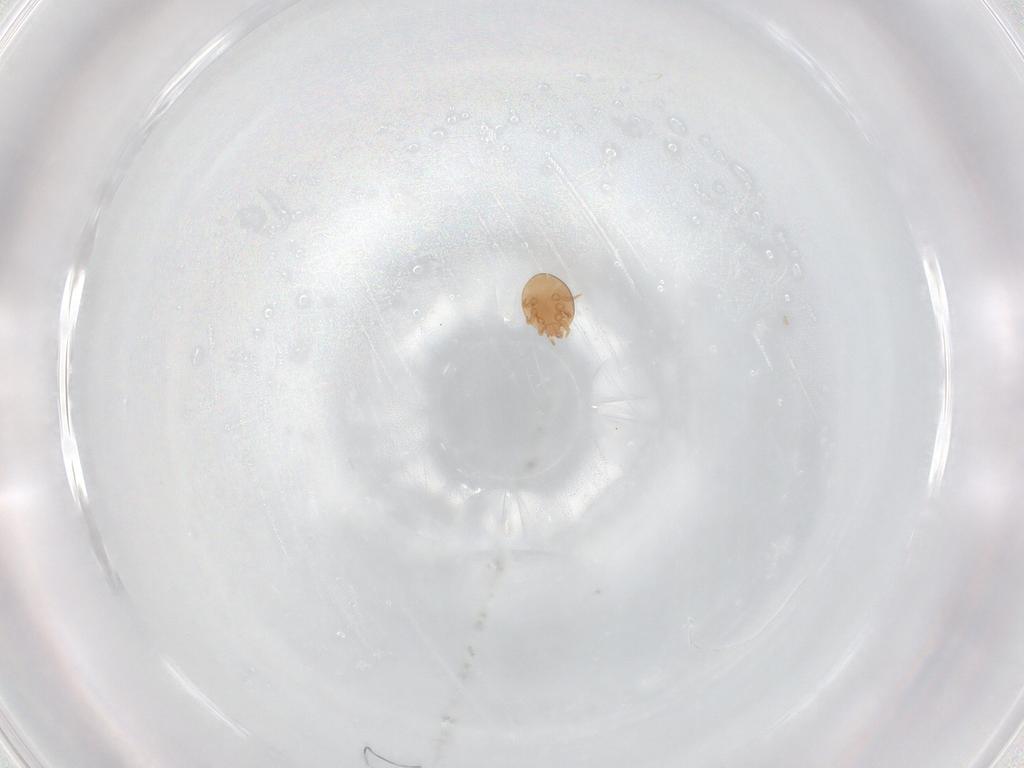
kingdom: Animalia
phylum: Arthropoda
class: Arachnida
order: Mesostigmata
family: Trematuridae
